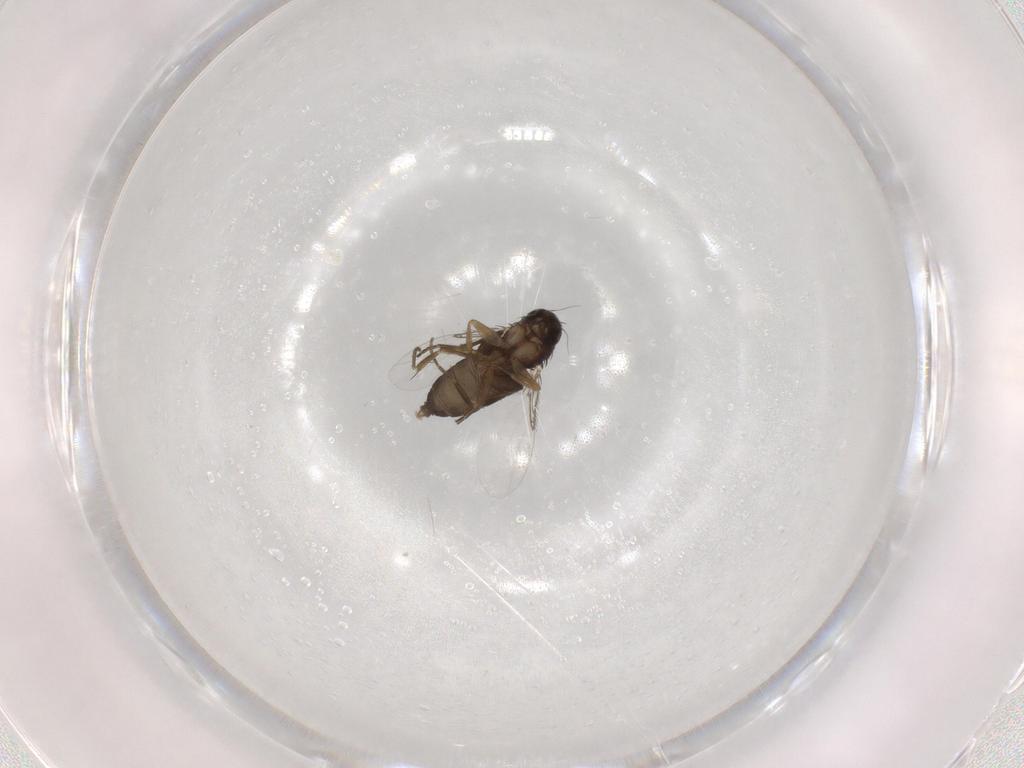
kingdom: Animalia
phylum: Arthropoda
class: Insecta
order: Diptera
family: Phoridae
